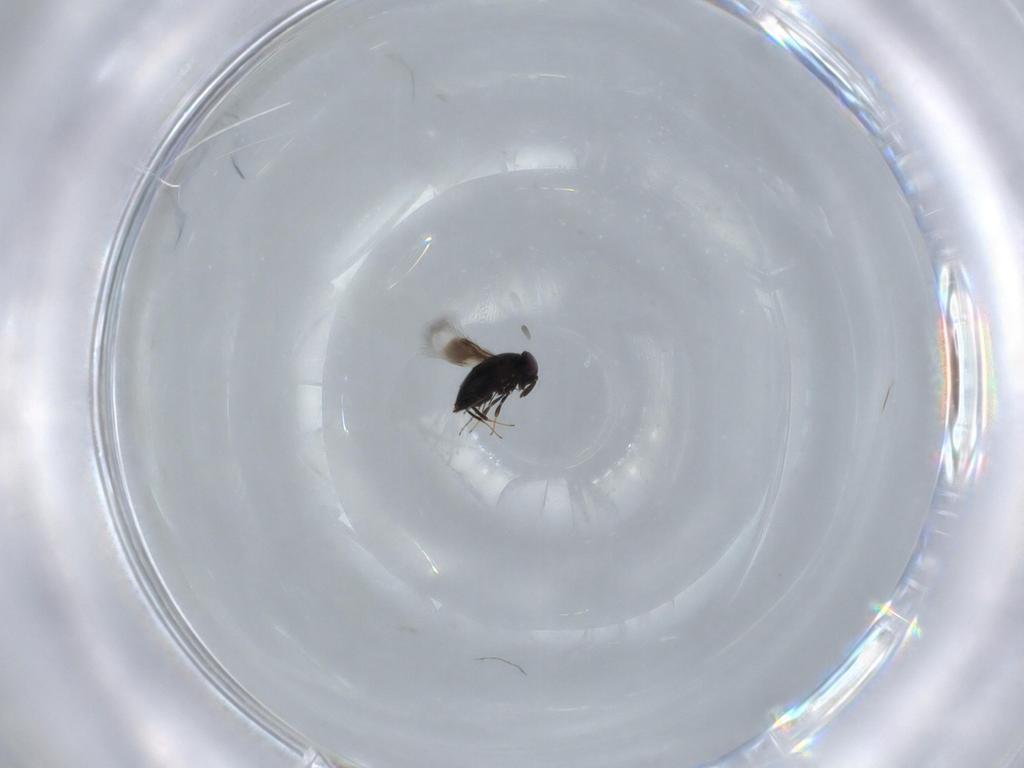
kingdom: Animalia
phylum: Arthropoda
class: Insecta
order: Hymenoptera
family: Signiphoridae
